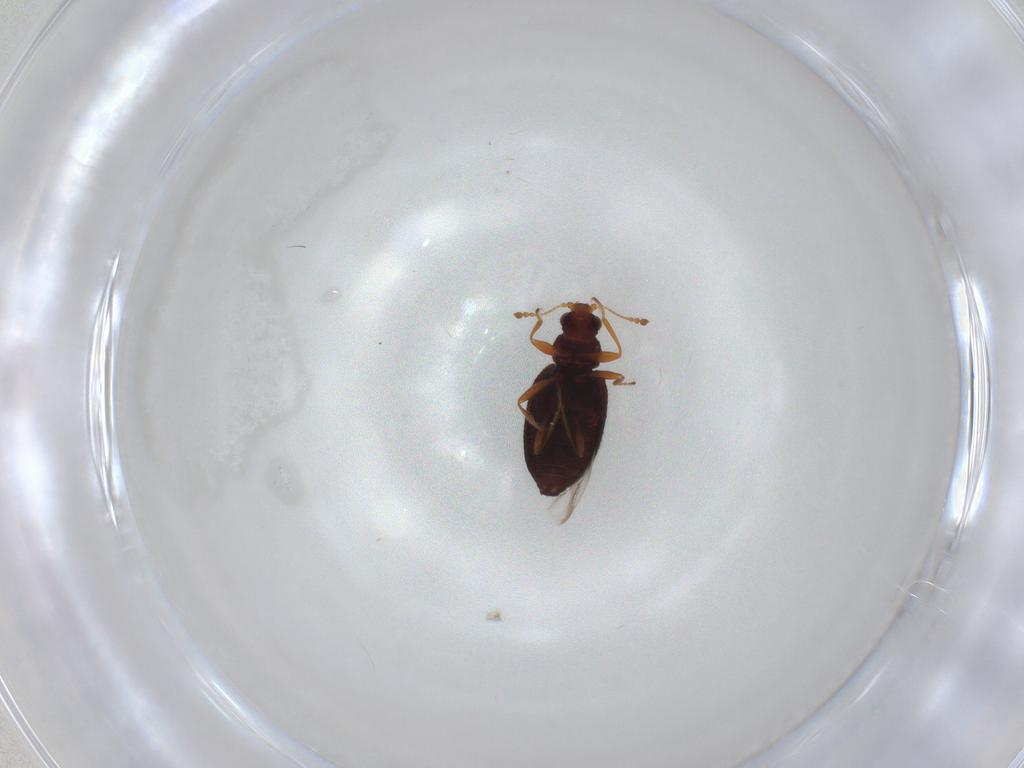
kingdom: Animalia
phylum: Arthropoda
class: Insecta
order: Coleoptera
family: Latridiidae
